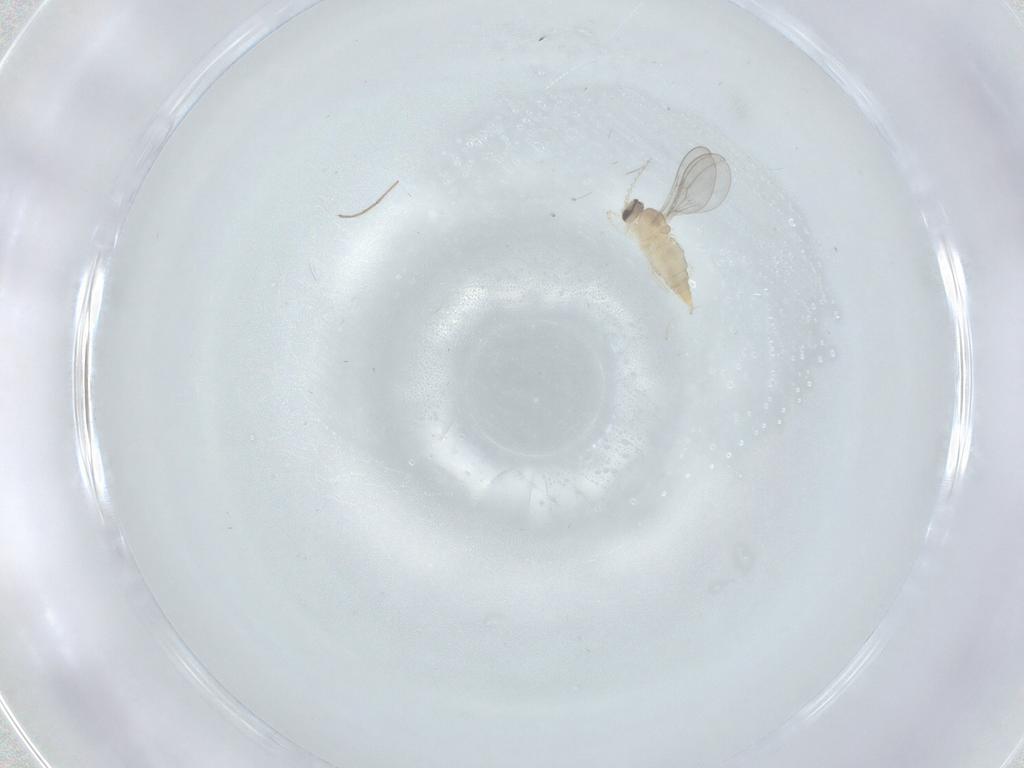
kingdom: Animalia
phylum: Arthropoda
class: Insecta
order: Diptera
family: Cecidomyiidae
